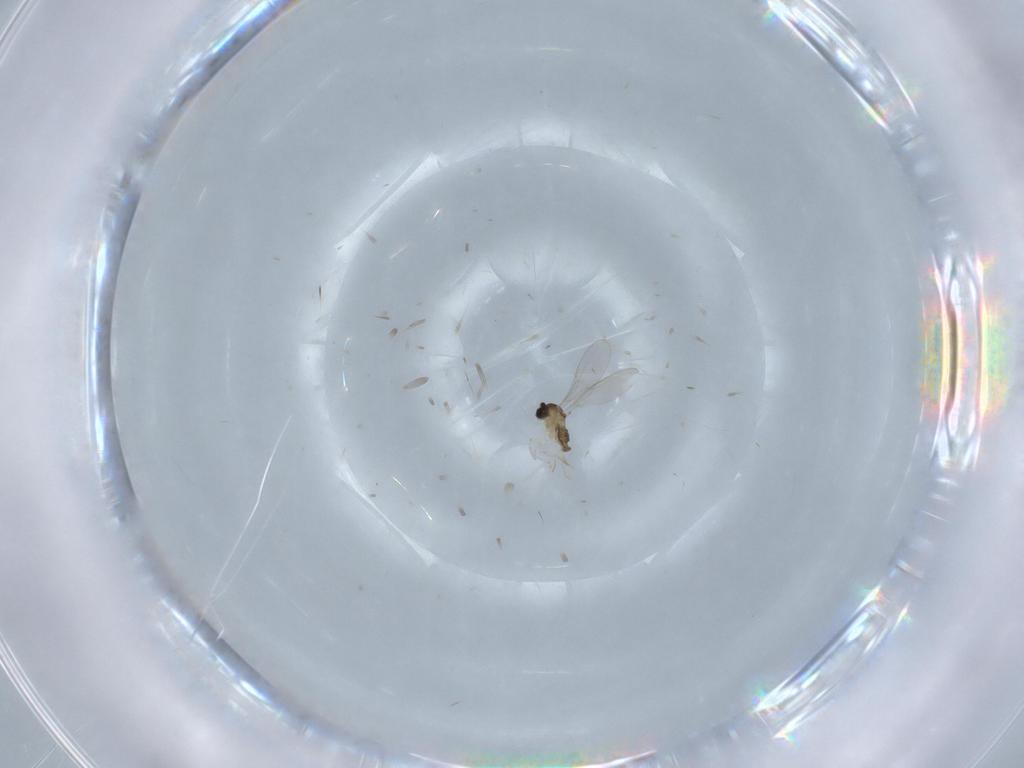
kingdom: Animalia
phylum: Arthropoda
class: Insecta
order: Diptera
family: Cecidomyiidae
